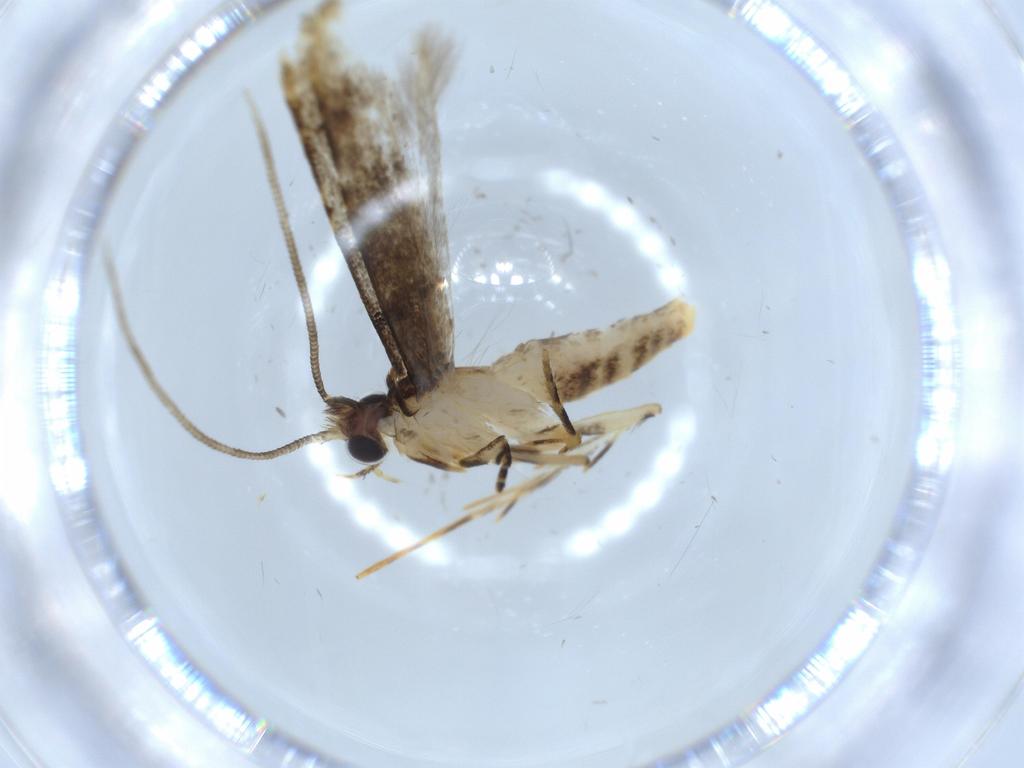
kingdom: Animalia
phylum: Arthropoda
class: Insecta
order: Lepidoptera
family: Tineidae
